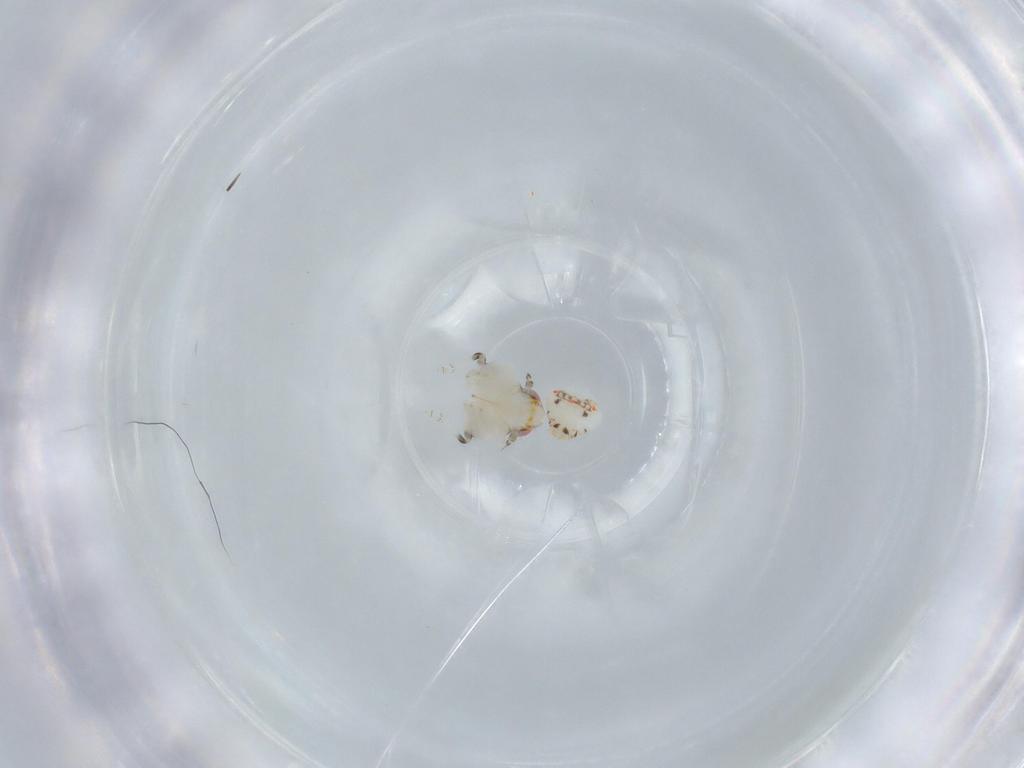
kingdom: Animalia
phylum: Arthropoda
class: Insecta
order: Hemiptera
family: Nogodinidae
